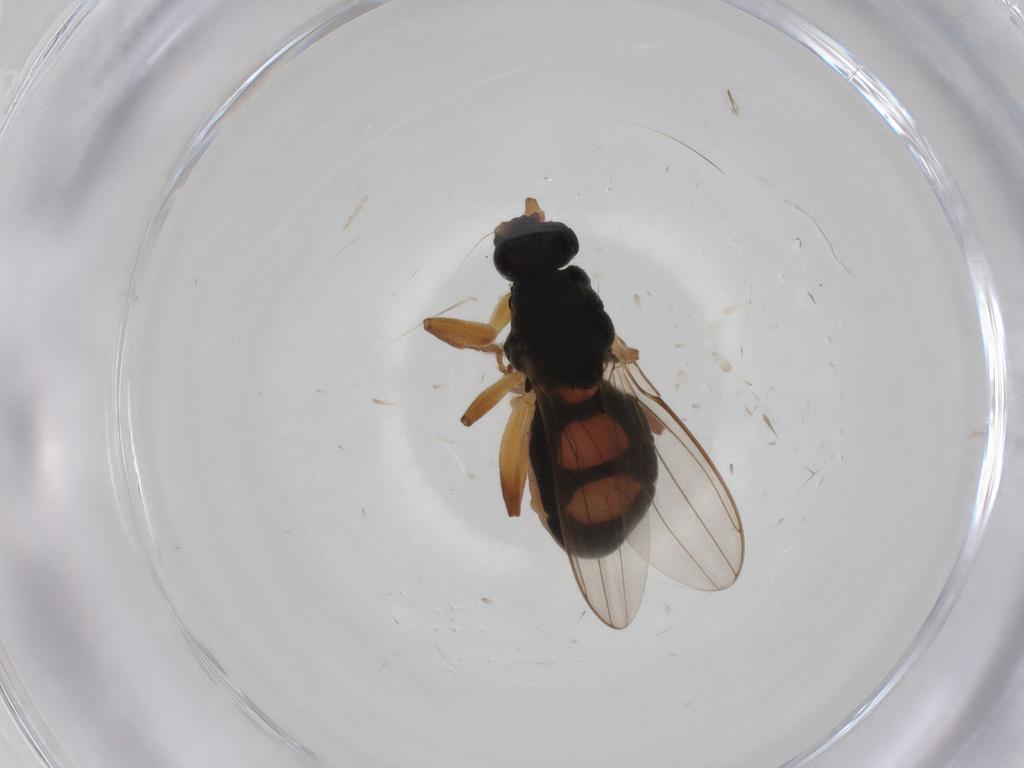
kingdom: Animalia
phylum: Arthropoda
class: Insecta
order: Diptera
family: Sphaeroceridae
